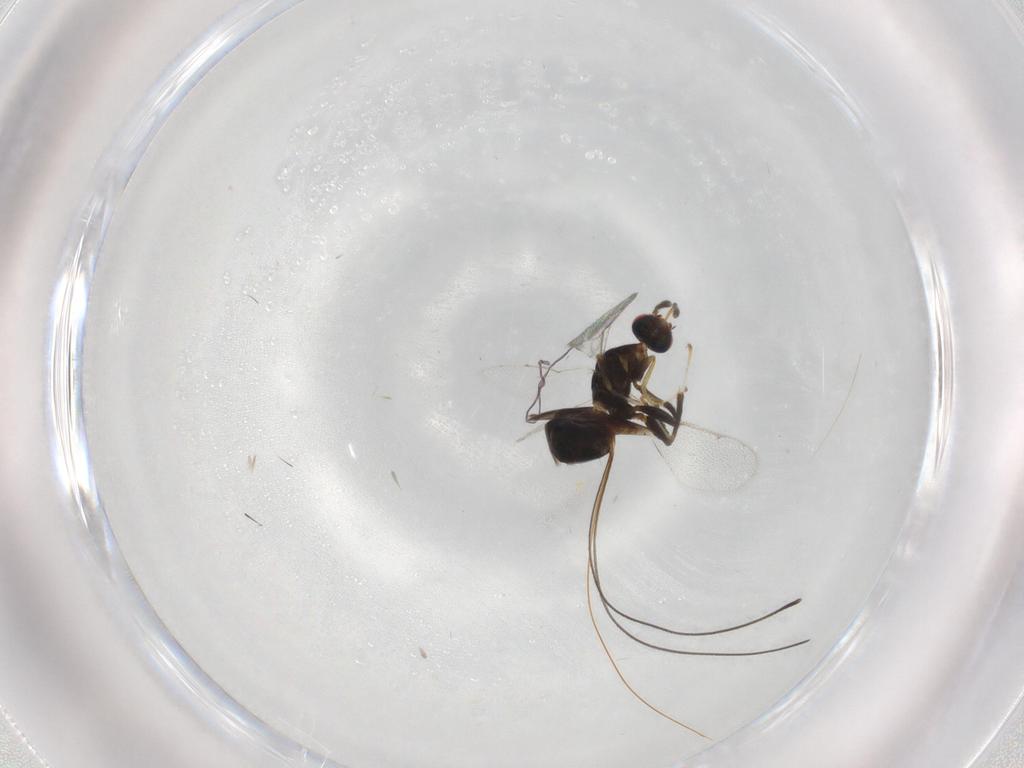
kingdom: Animalia
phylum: Arthropoda
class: Insecta
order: Hymenoptera
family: Torymidae
